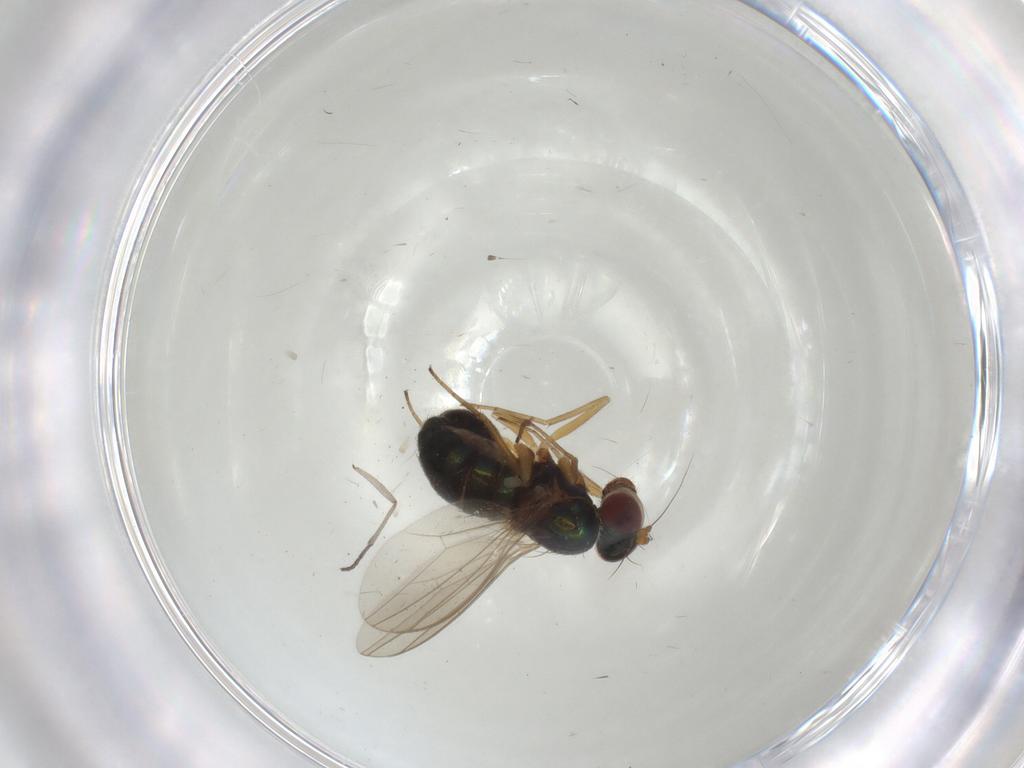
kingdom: Animalia
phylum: Arthropoda
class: Insecta
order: Diptera
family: Sciaridae
